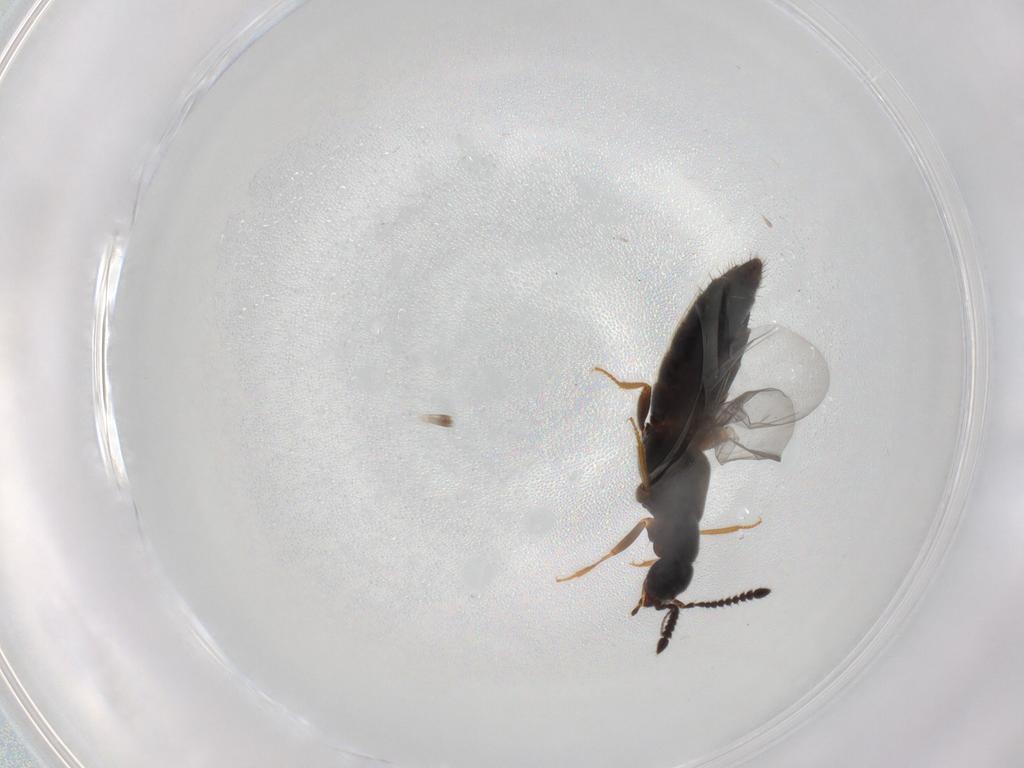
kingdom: Animalia
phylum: Arthropoda
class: Insecta
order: Coleoptera
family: Staphylinidae
